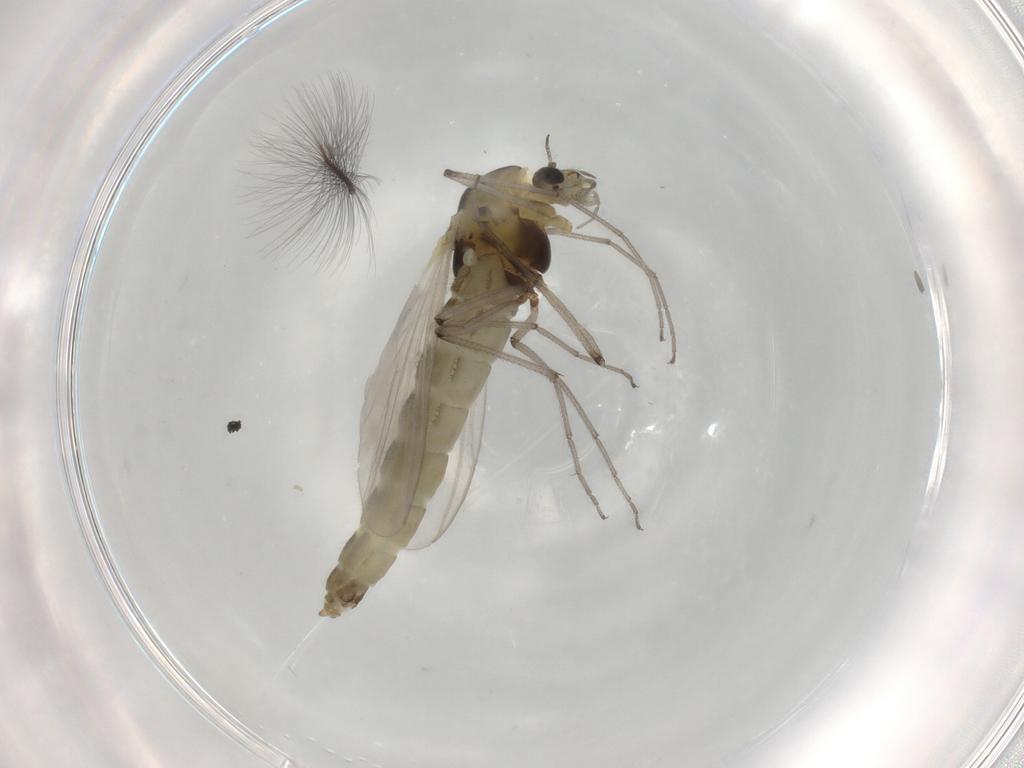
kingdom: Animalia
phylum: Arthropoda
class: Insecta
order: Diptera
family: Chironomidae
